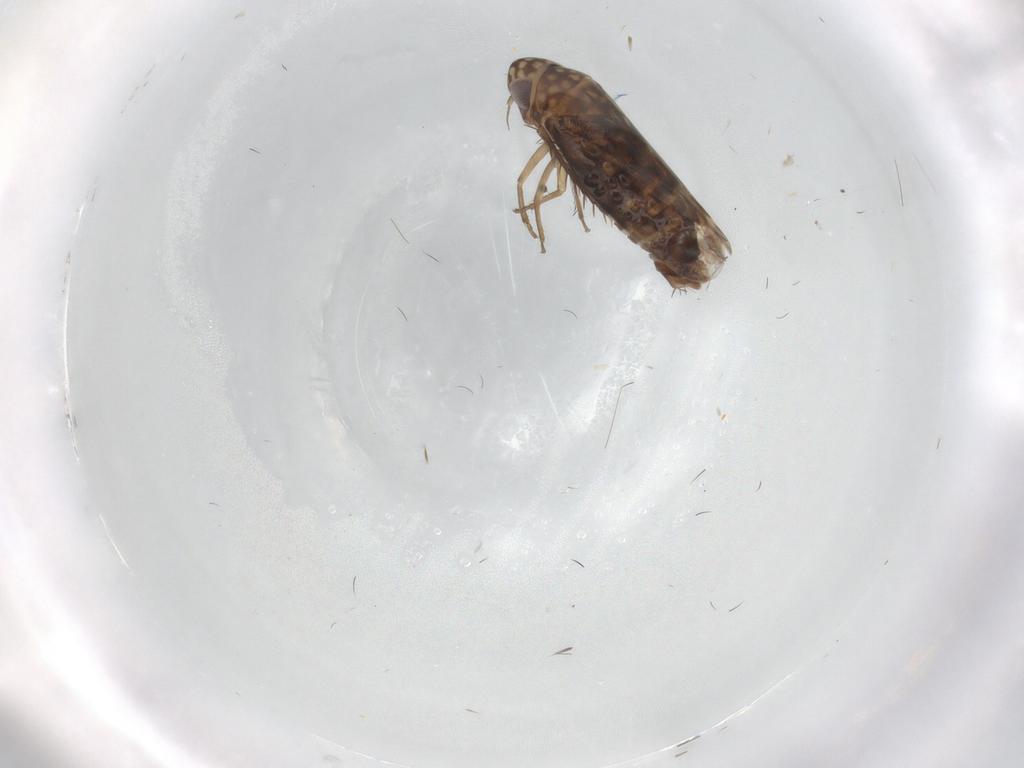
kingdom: Animalia
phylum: Arthropoda
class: Insecta
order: Hemiptera
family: Cicadellidae
